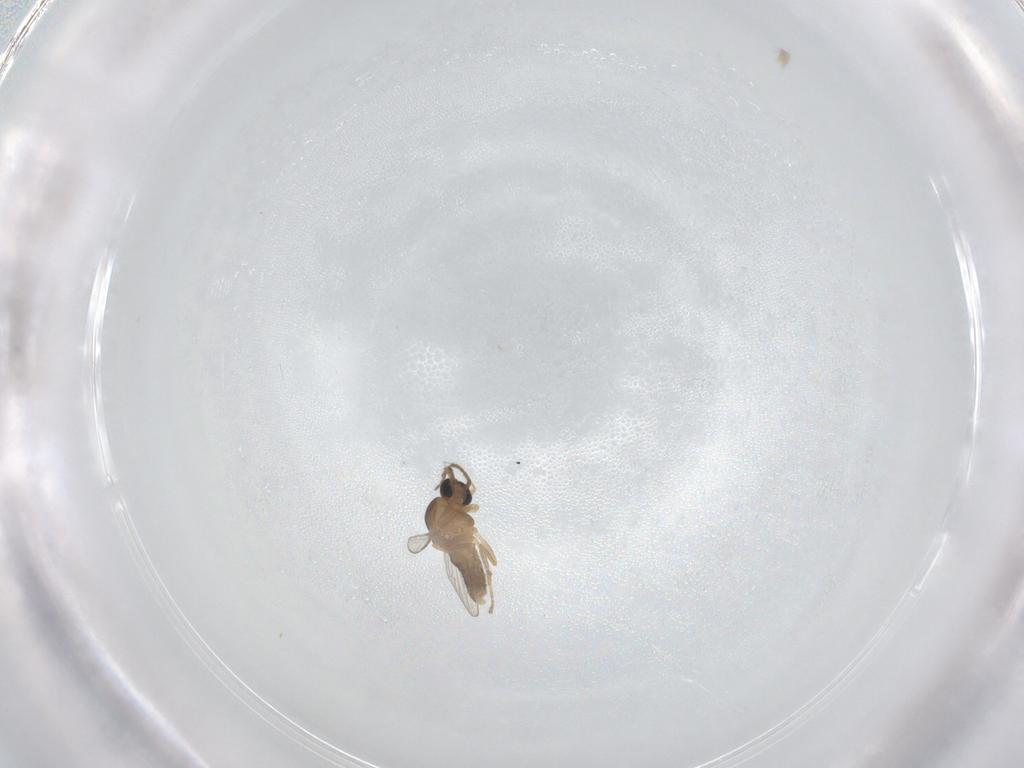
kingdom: Animalia
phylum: Arthropoda
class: Insecta
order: Diptera
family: Ceratopogonidae
